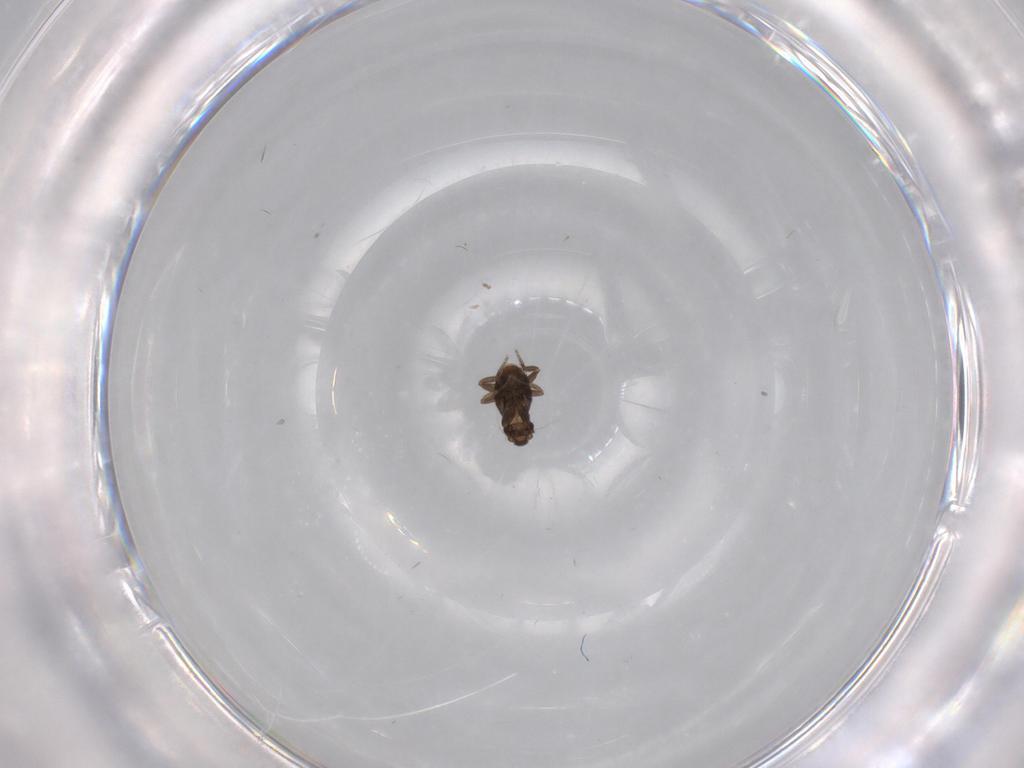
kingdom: Animalia
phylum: Arthropoda
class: Insecta
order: Diptera
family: Phoridae
